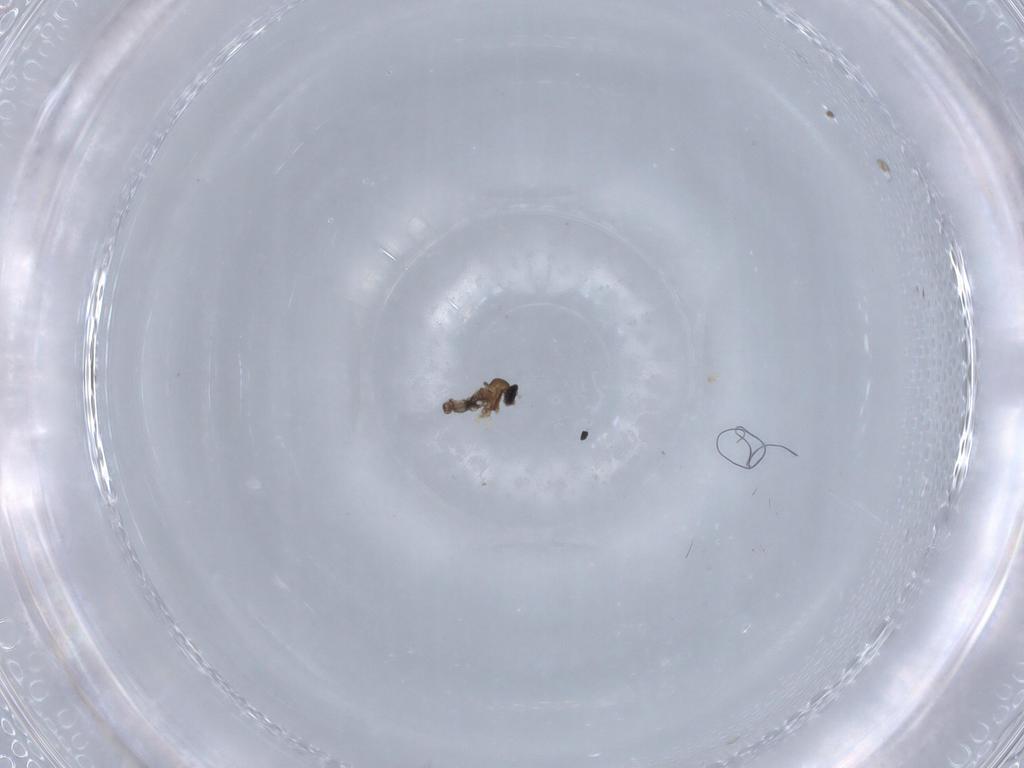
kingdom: Animalia
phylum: Arthropoda
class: Insecta
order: Diptera
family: Cecidomyiidae
